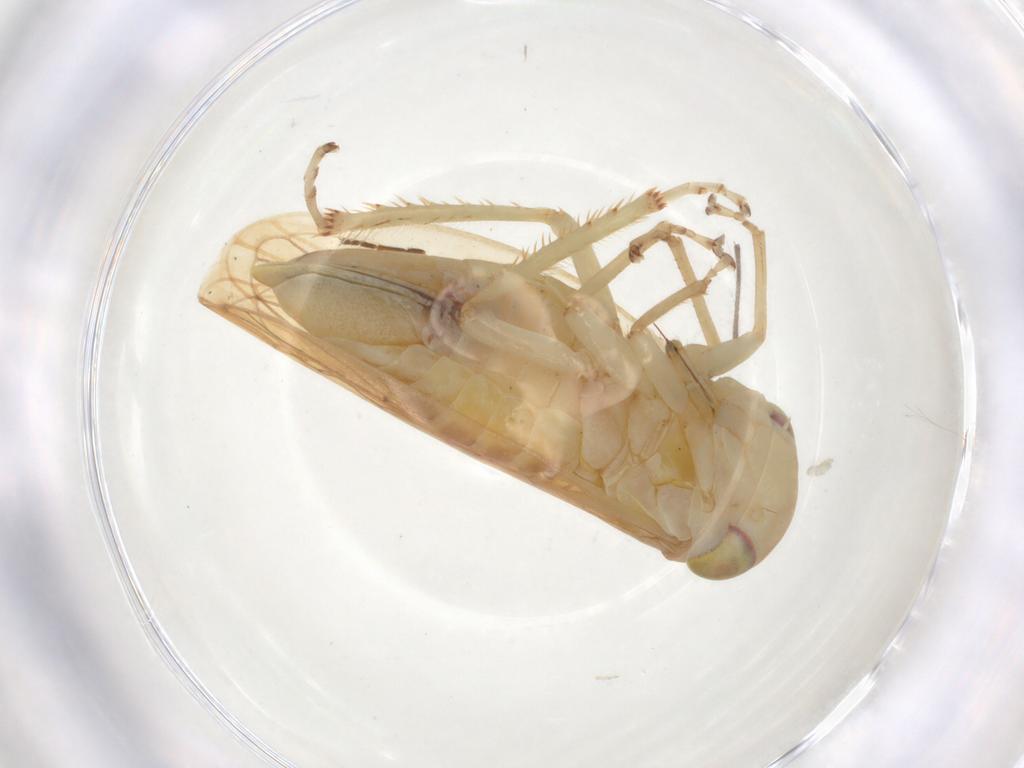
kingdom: Animalia
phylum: Arthropoda
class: Insecta
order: Hemiptera
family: Cicadellidae
